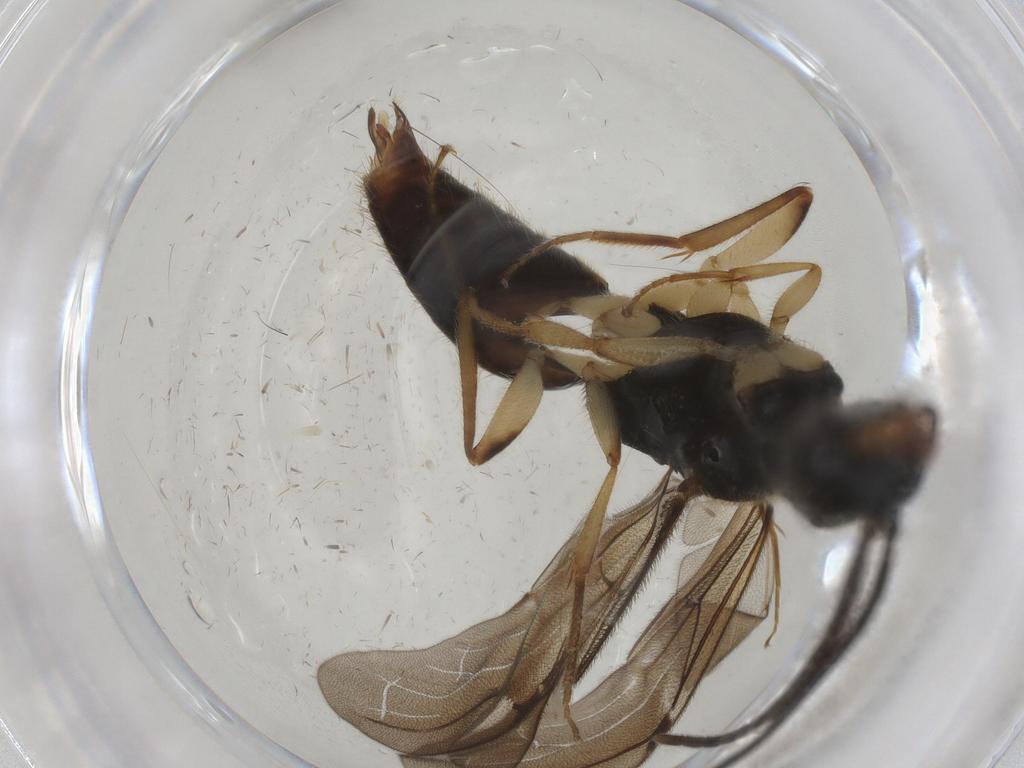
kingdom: Animalia
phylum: Arthropoda
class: Insecta
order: Hymenoptera
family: Bethylidae
